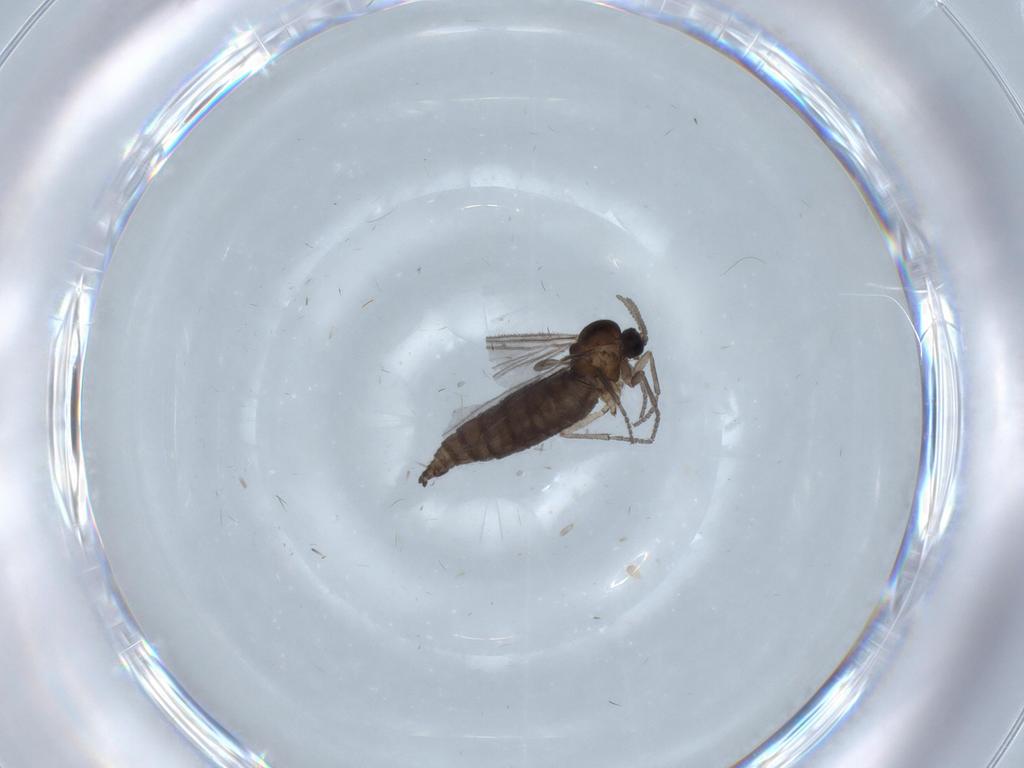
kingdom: Animalia
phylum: Arthropoda
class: Insecta
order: Diptera
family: Sciaridae
